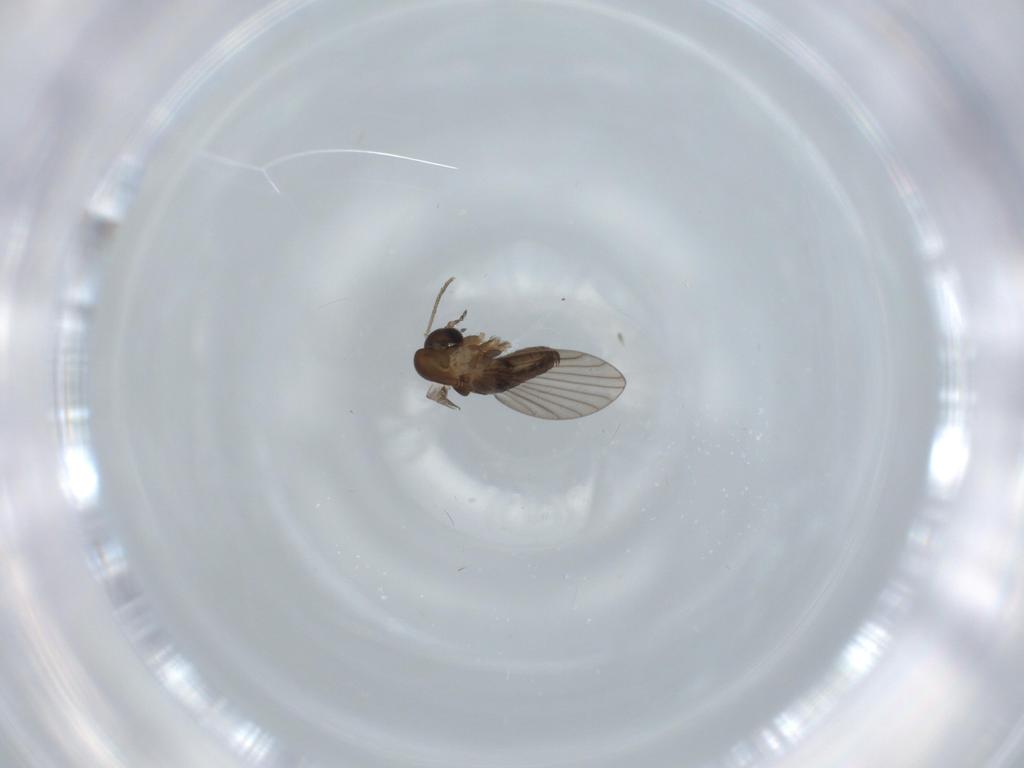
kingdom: Animalia
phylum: Arthropoda
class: Insecta
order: Diptera
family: Psychodidae
